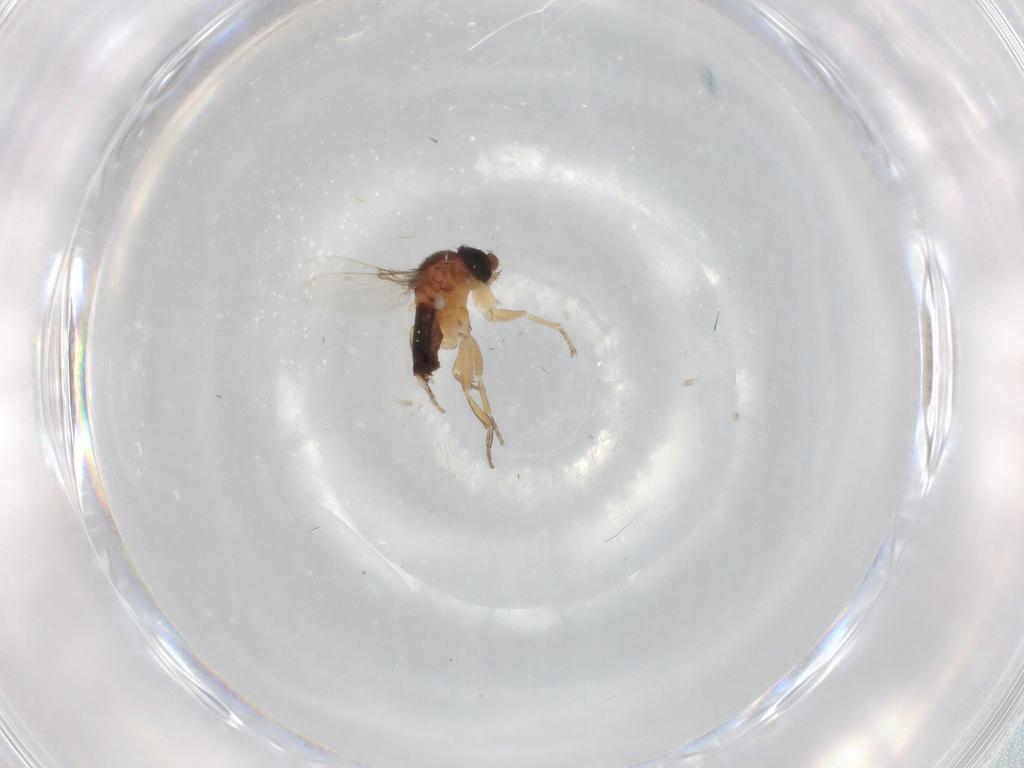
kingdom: Animalia
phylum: Arthropoda
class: Insecta
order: Diptera
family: Phoridae
